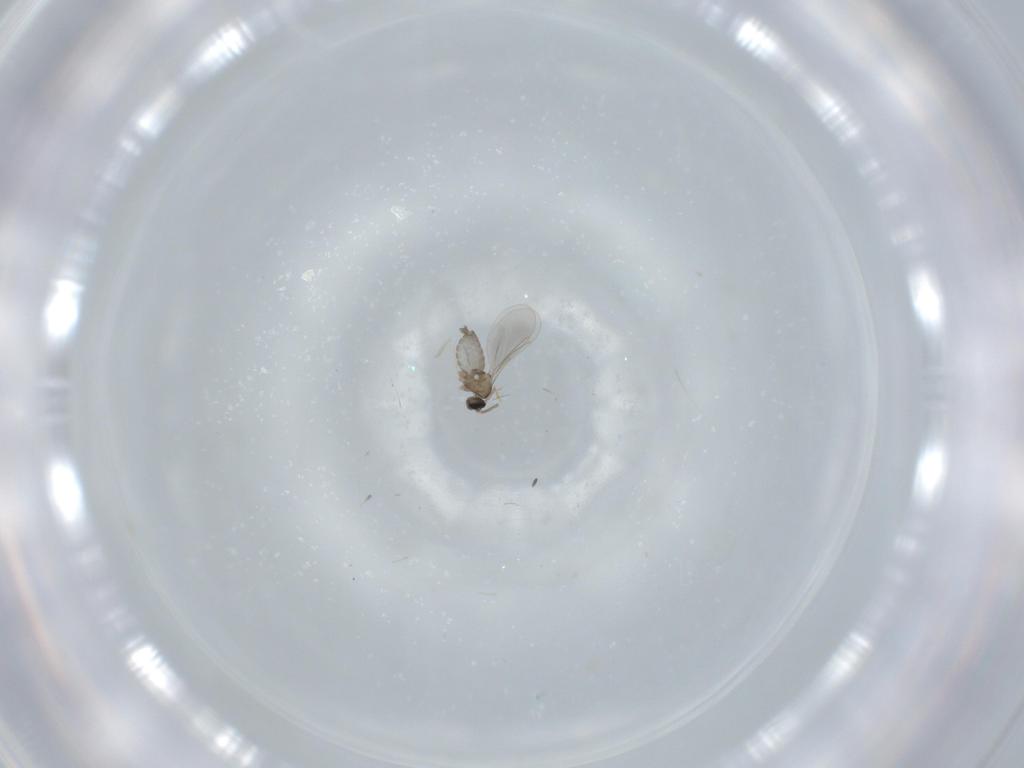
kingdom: Animalia
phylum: Arthropoda
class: Insecta
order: Diptera
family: Cecidomyiidae
